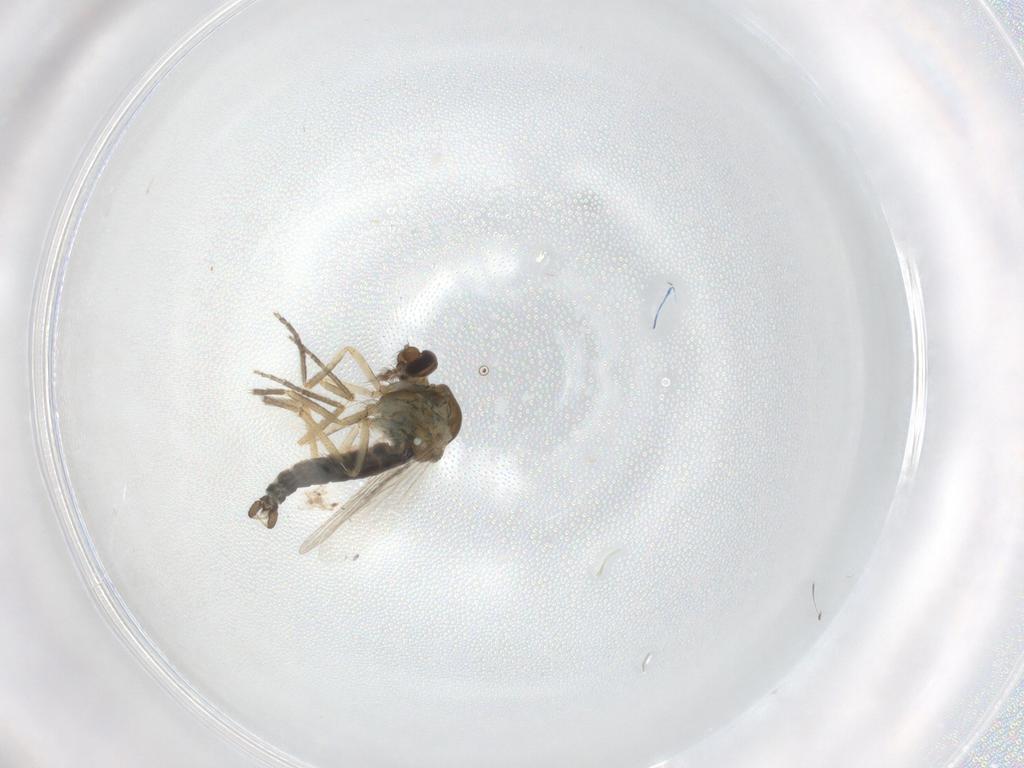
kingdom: Animalia
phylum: Arthropoda
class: Insecta
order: Diptera
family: Ceratopogonidae
